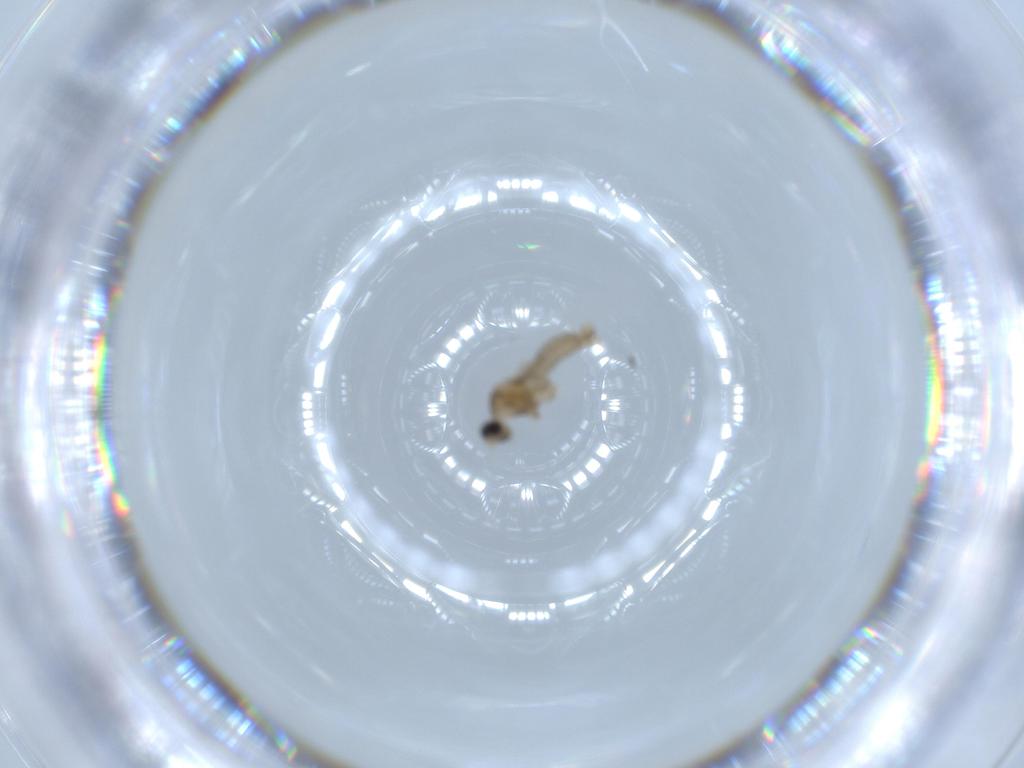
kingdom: Animalia
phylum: Arthropoda
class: Insecta
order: Diptera
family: Cecidomyiidae
